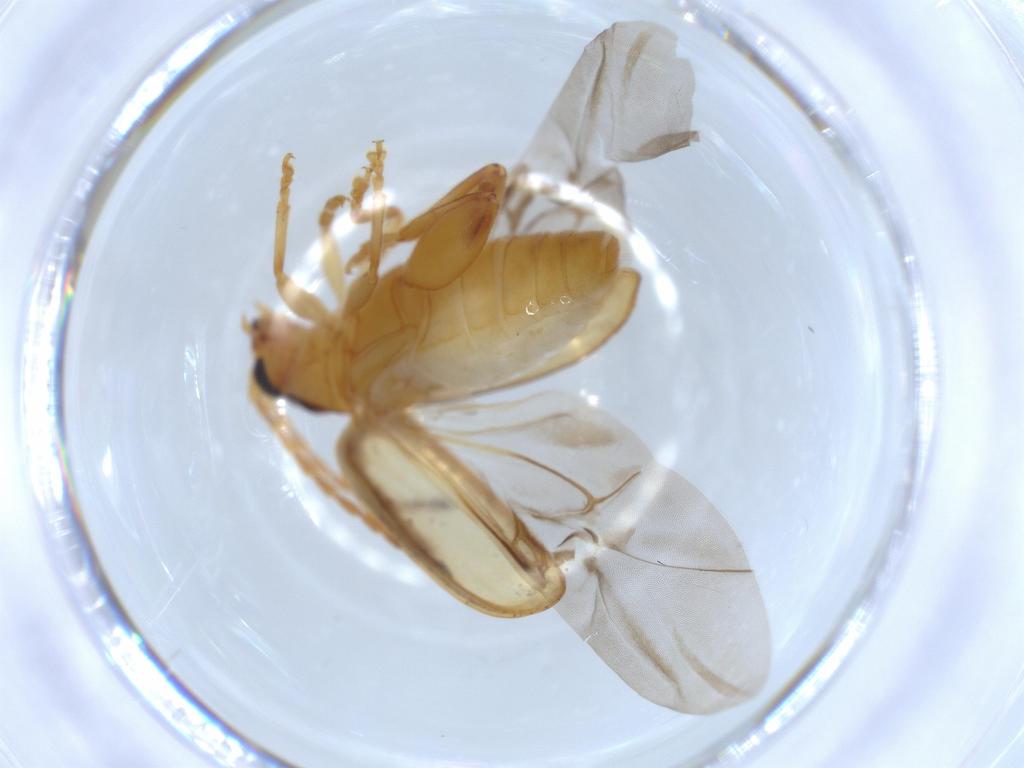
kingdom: Animalia
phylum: Arthropoda
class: Insecta
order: Coleoptera
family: Chrysomelidae
